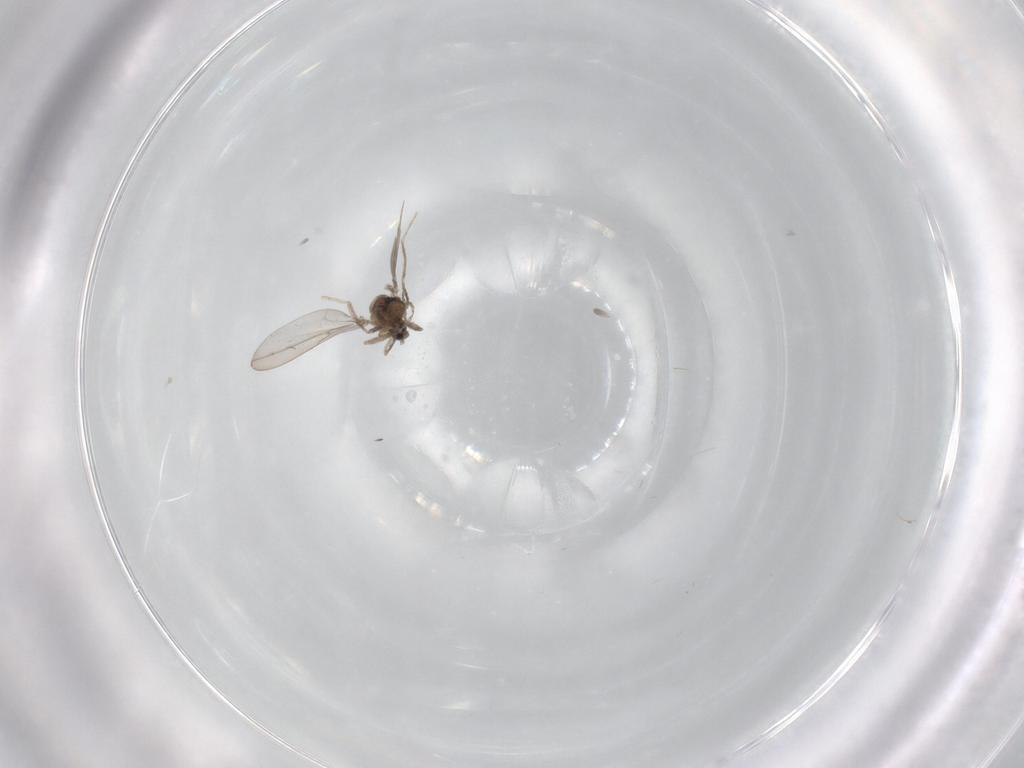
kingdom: Animalia
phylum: Arthropoda
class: Insecta
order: Diptera
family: Cecidomyiidae
